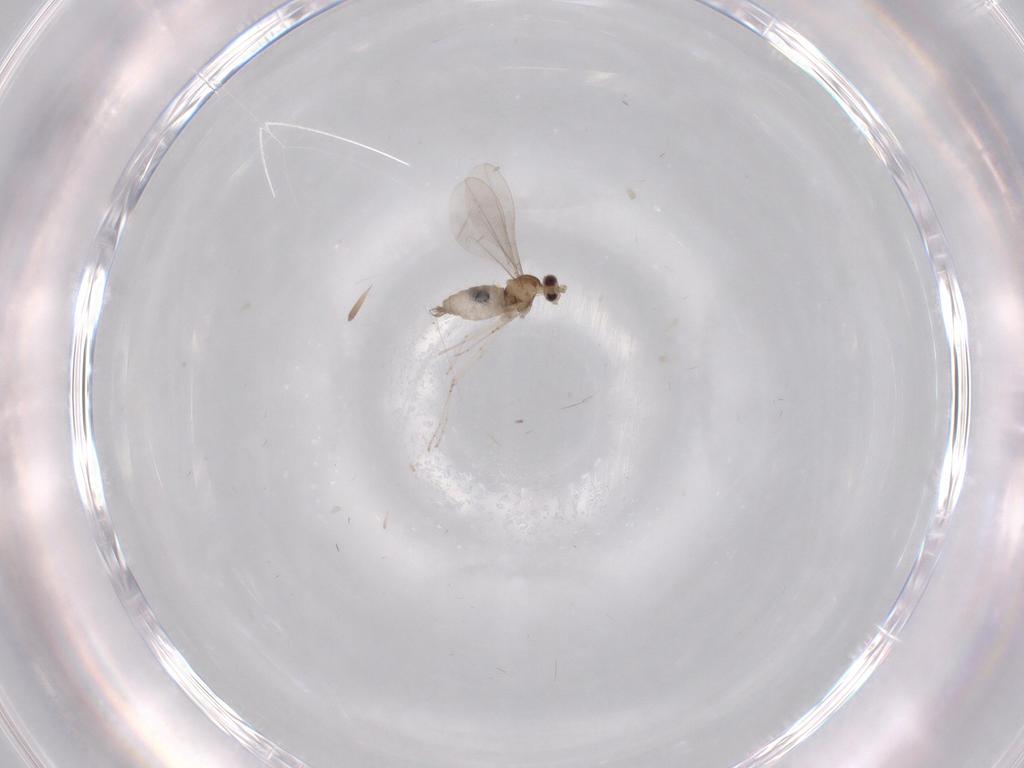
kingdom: Animalia
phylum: Arthropoda
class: Insecta
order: Diptera
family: Cecidomyiidae
